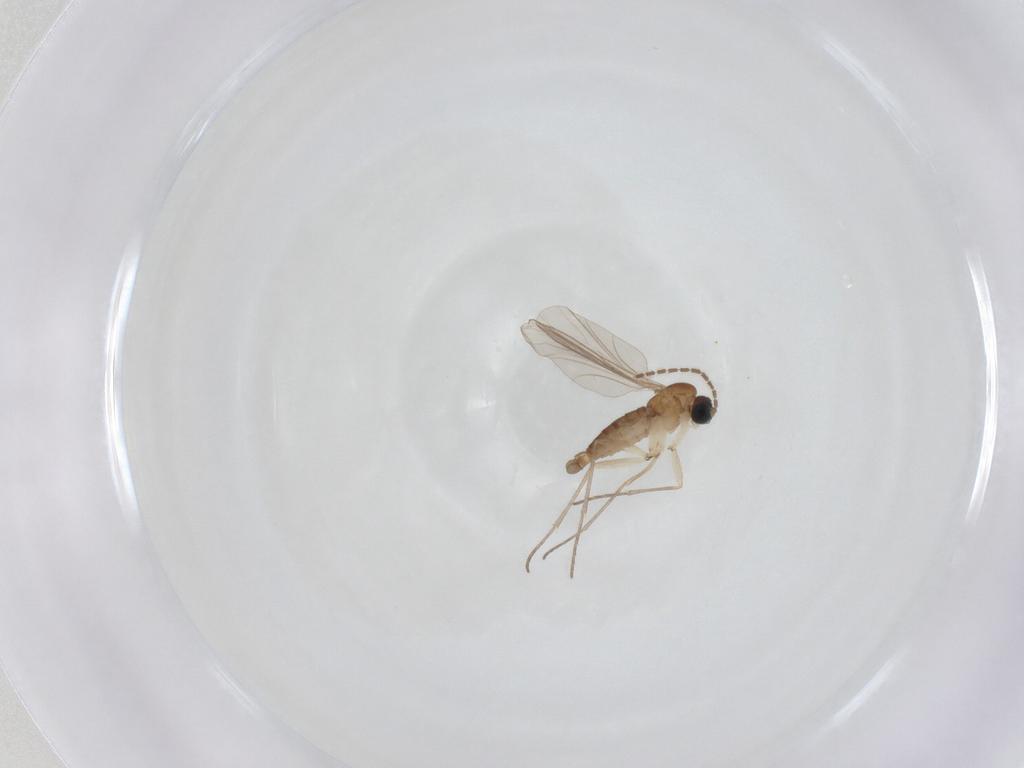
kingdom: Animalia
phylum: Arthropoda
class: Insecta
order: Diptera
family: Sciaridae
